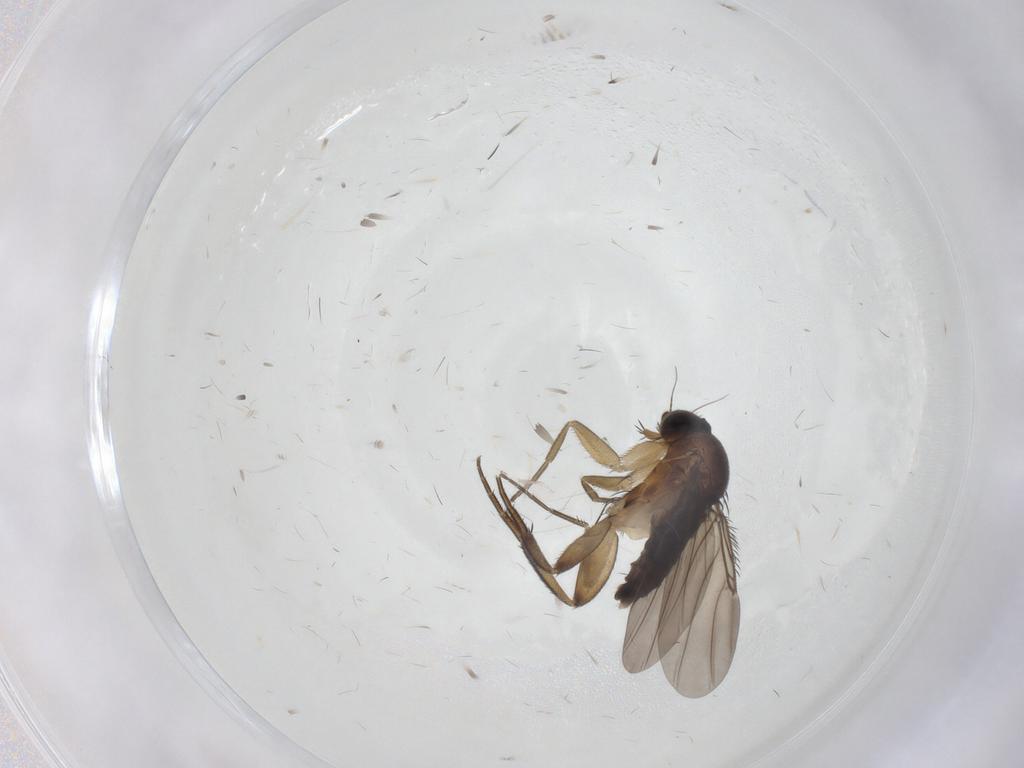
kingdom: Animalia
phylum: Arthropoda
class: Insecta
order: Diptera
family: Phoridae
